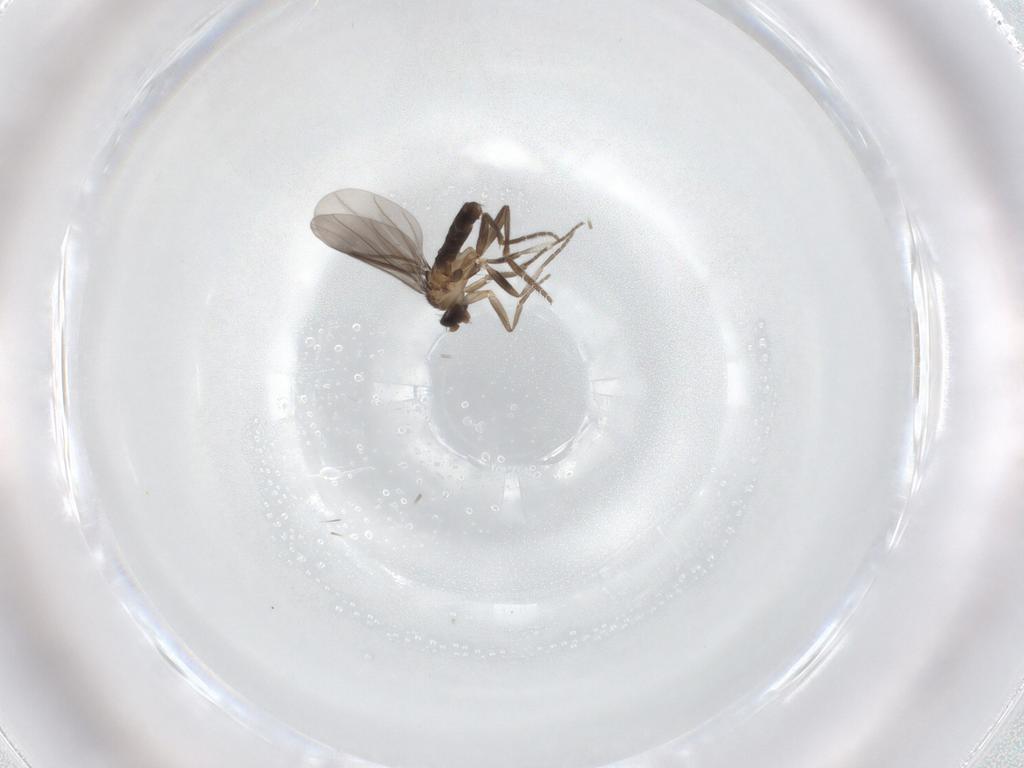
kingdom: Animalia
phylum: Arthropoda
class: Insecta
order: Diptera
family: Phoridae
